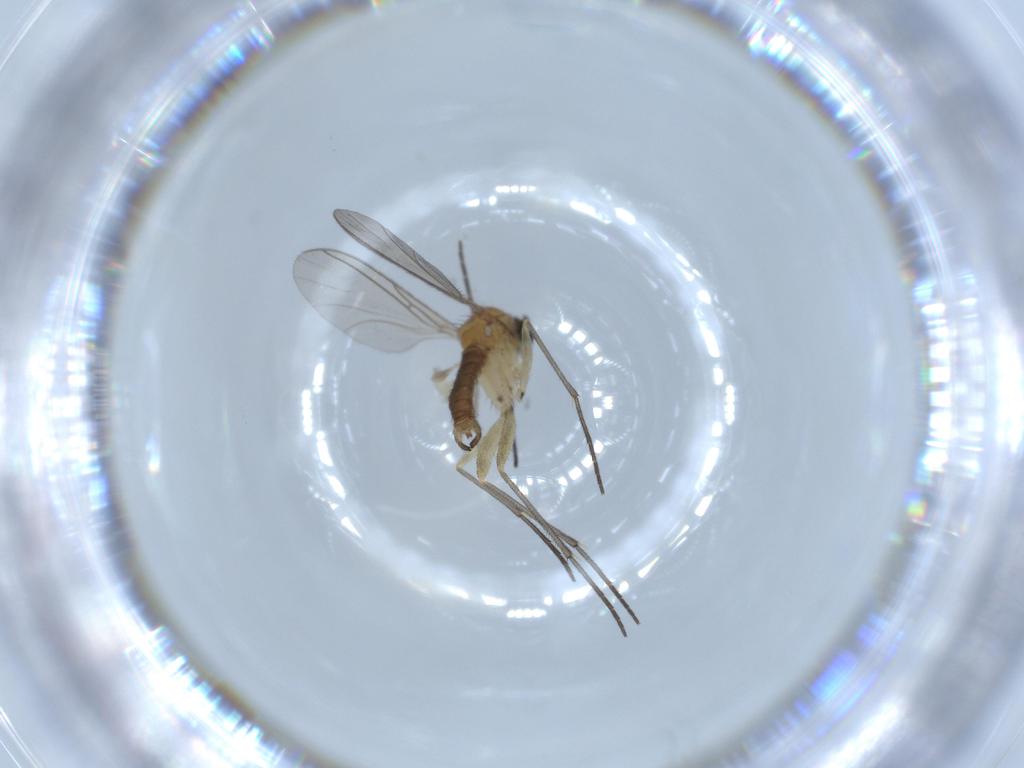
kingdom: Animalia
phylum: Arthropoda
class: Insecta
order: Diptera
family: Sciaridae
